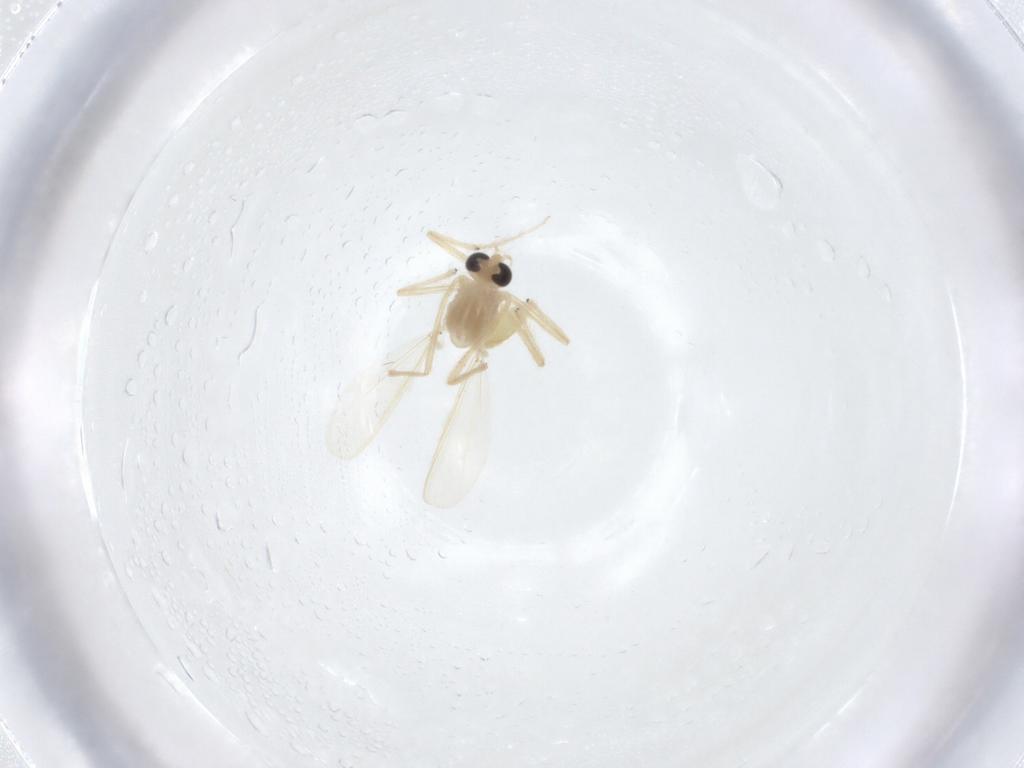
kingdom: Animalia
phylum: Arthropoda
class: Insecta
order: Diptera
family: Chironomidae
